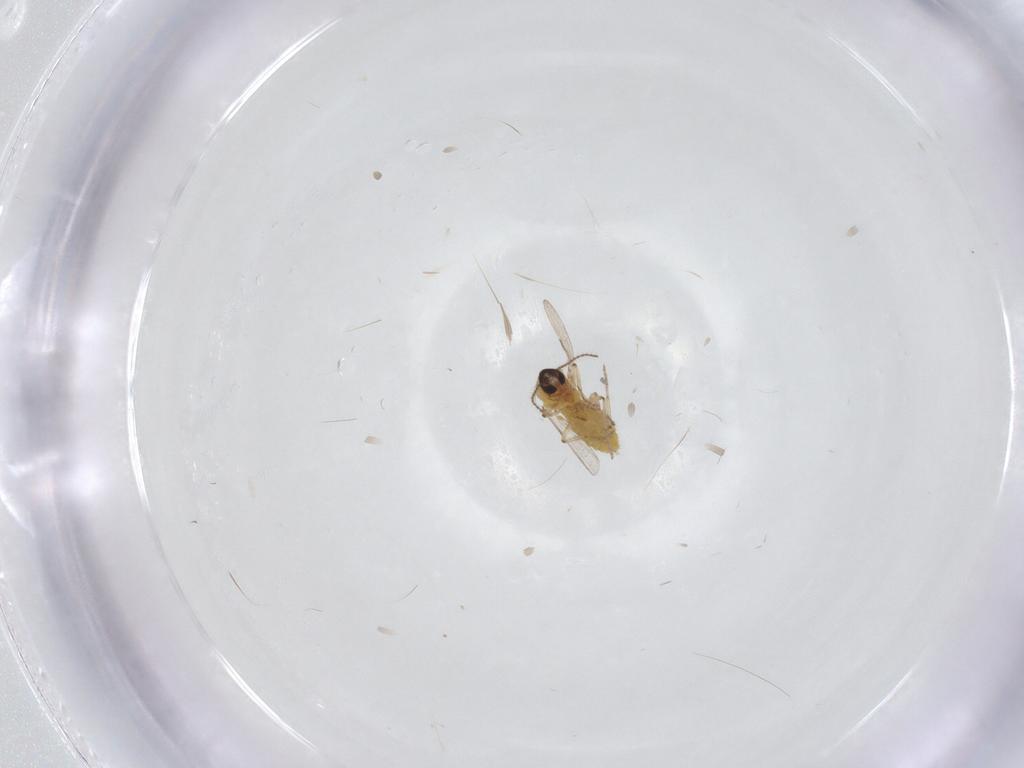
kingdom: Animalia
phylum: Arthropoda
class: Insecta
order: Diptera
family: Ceratopogonidae
